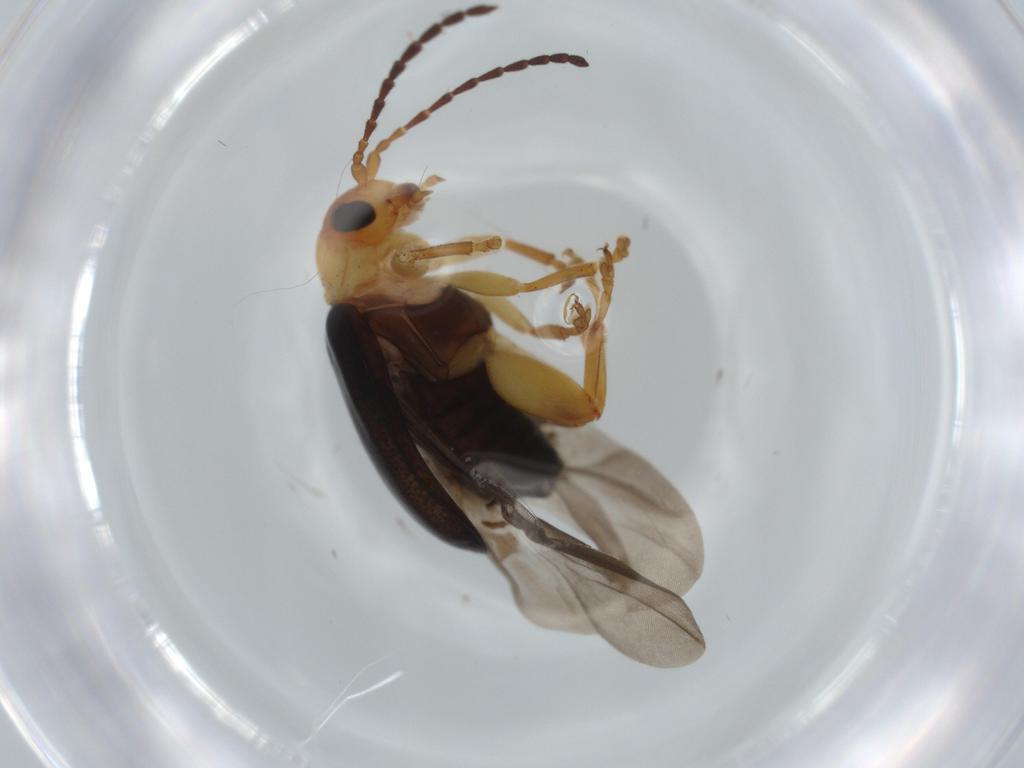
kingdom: Animalia
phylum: Arthropoda
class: Insecta
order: Coleoptera
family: Chrysomelidae
